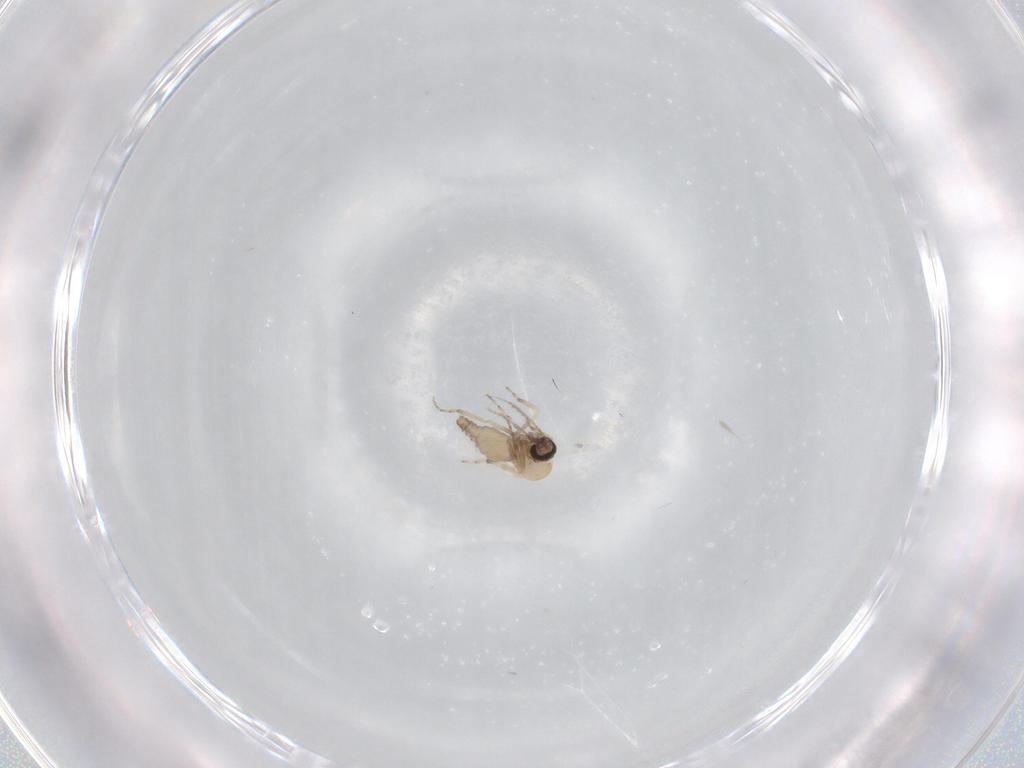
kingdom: Animalia
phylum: Arthropoda
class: Insecta
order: Diptera
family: Ceratopogonidae
